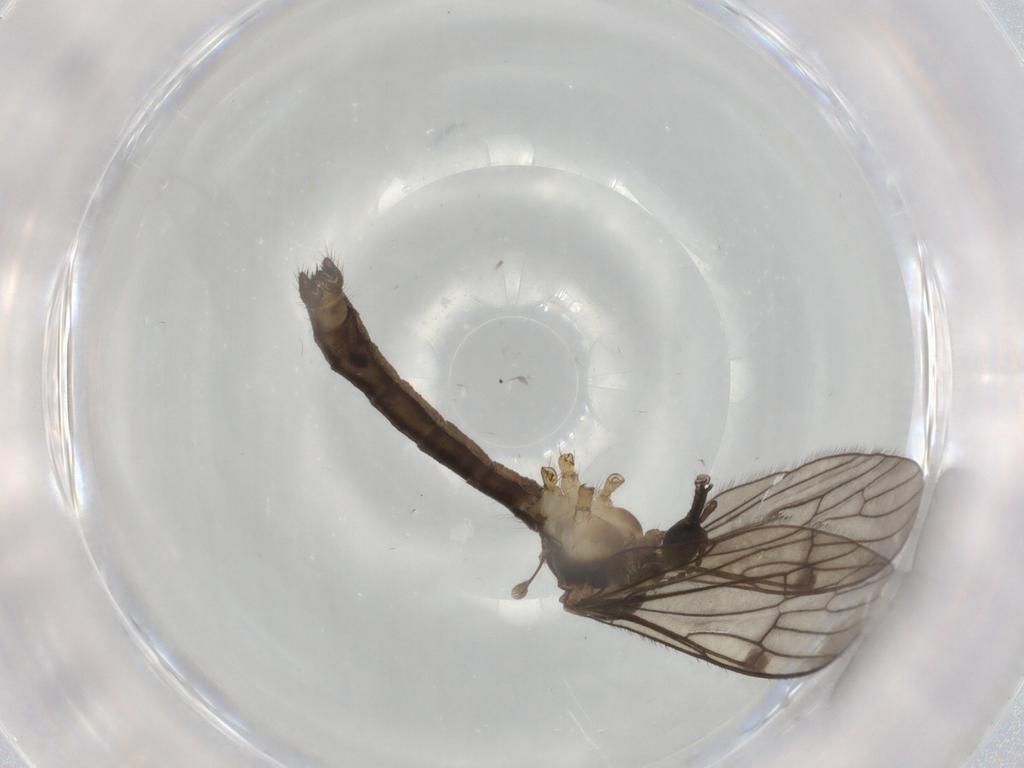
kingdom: Animalia
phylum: Arthropoda
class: Insecta
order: Diptera
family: Limoniidae
